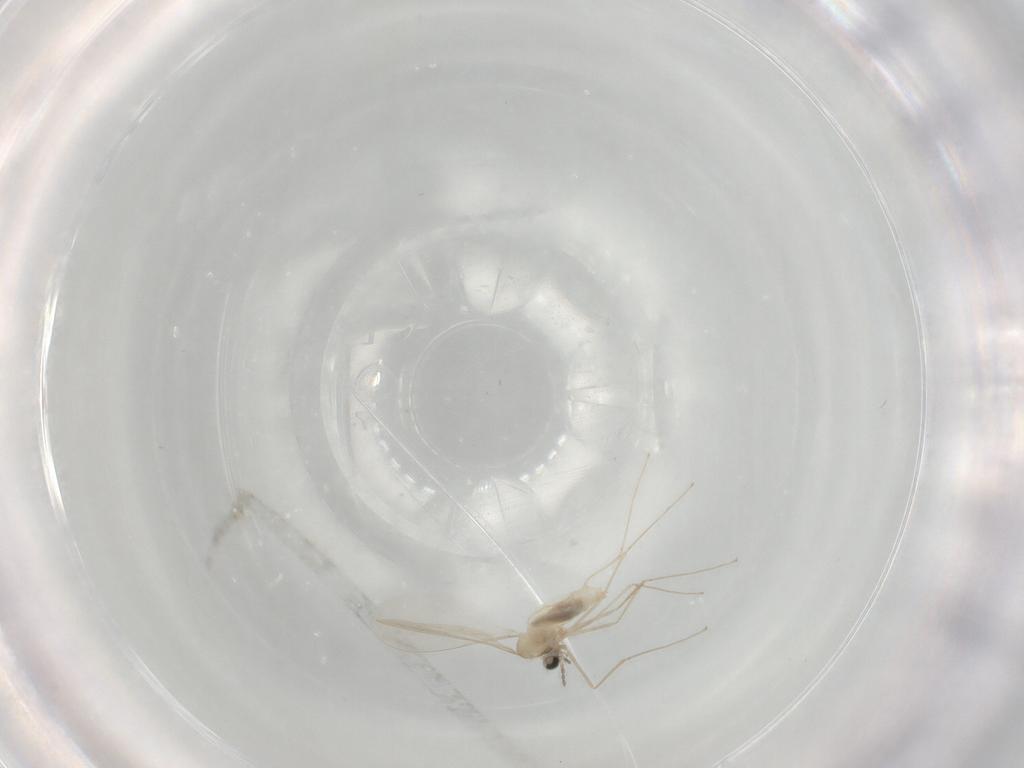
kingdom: Animalia
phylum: Arthropoda
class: Insecta
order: Diptera
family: Cecidomyiidae
